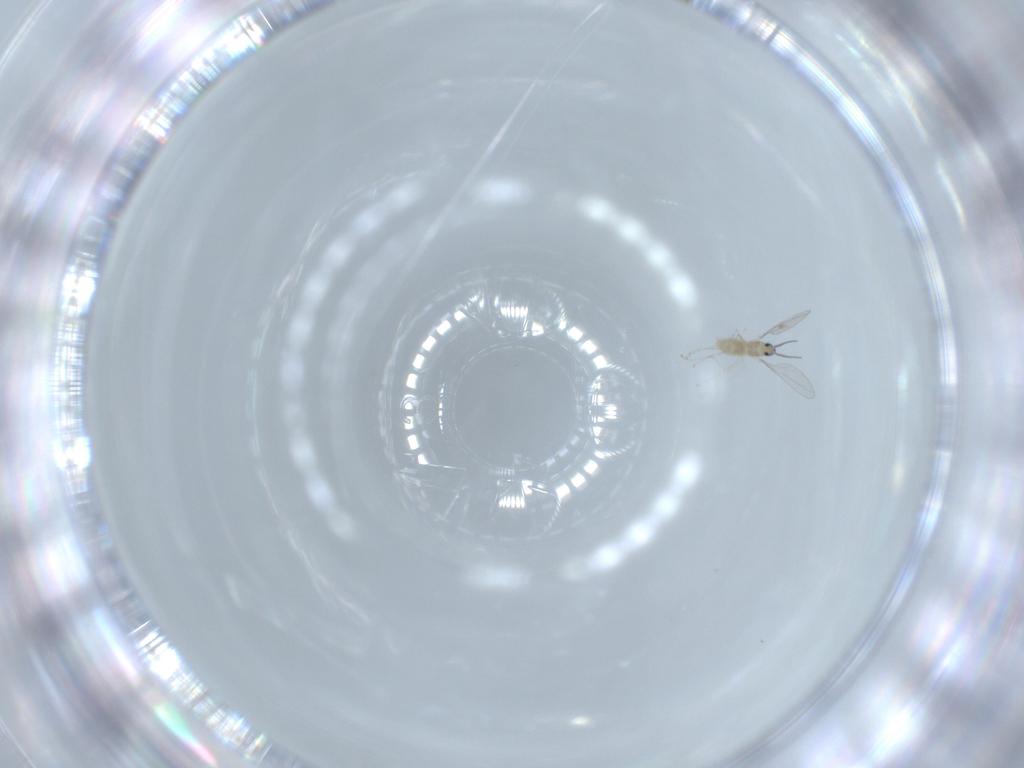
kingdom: Animalia
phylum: Arthropoda
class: Insecta
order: Diptera
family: Cecidomyiidae
